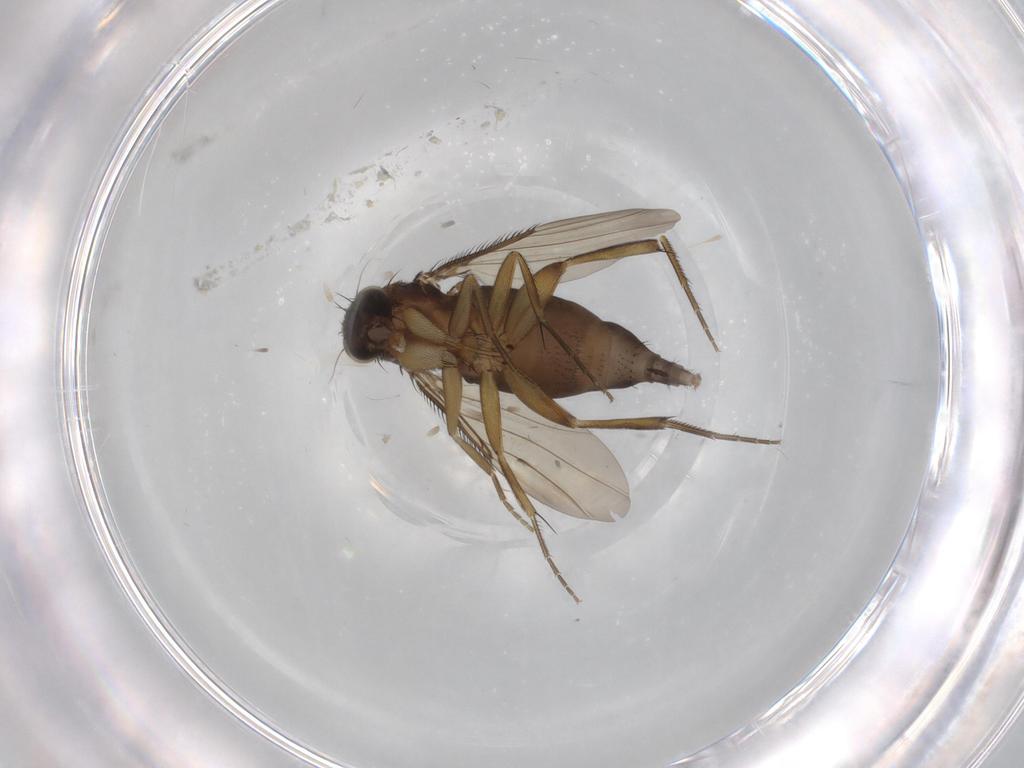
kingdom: Animalia
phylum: Arthropoda
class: Insecta
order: Diptera
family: Phoridae
